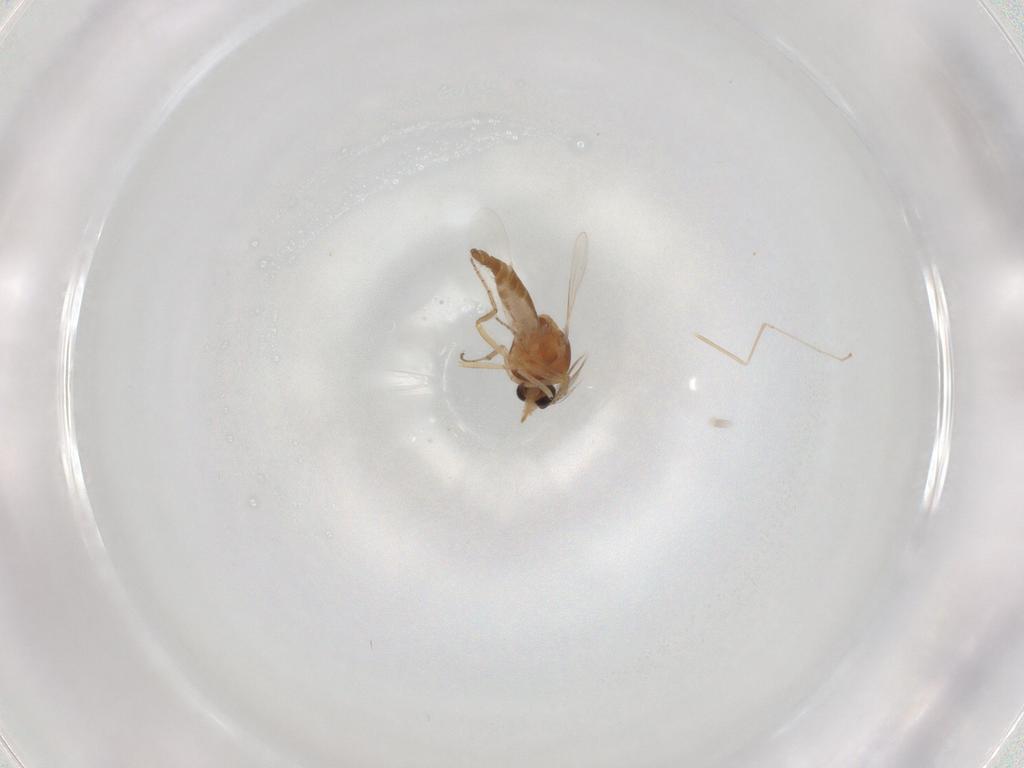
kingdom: Animalia
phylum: Arthropoda
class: Insecta
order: Diptera
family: Ceratopogonidae
